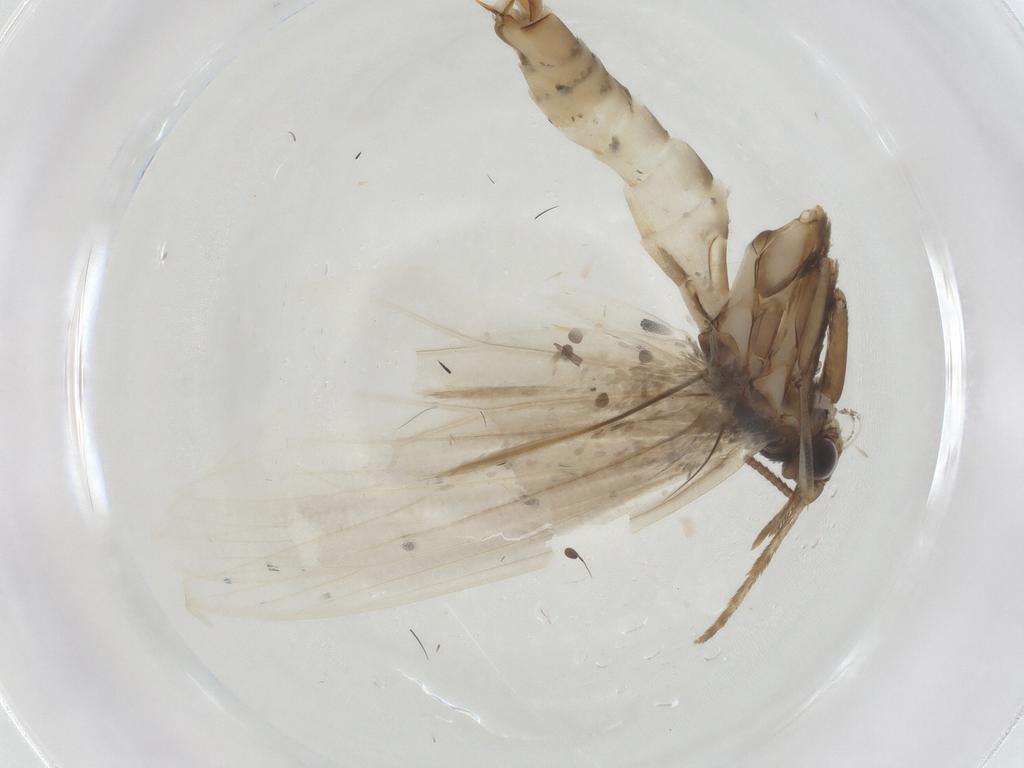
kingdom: Animalia
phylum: Arthropoda
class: Insecta
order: Lepidoptera
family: Tineidae
